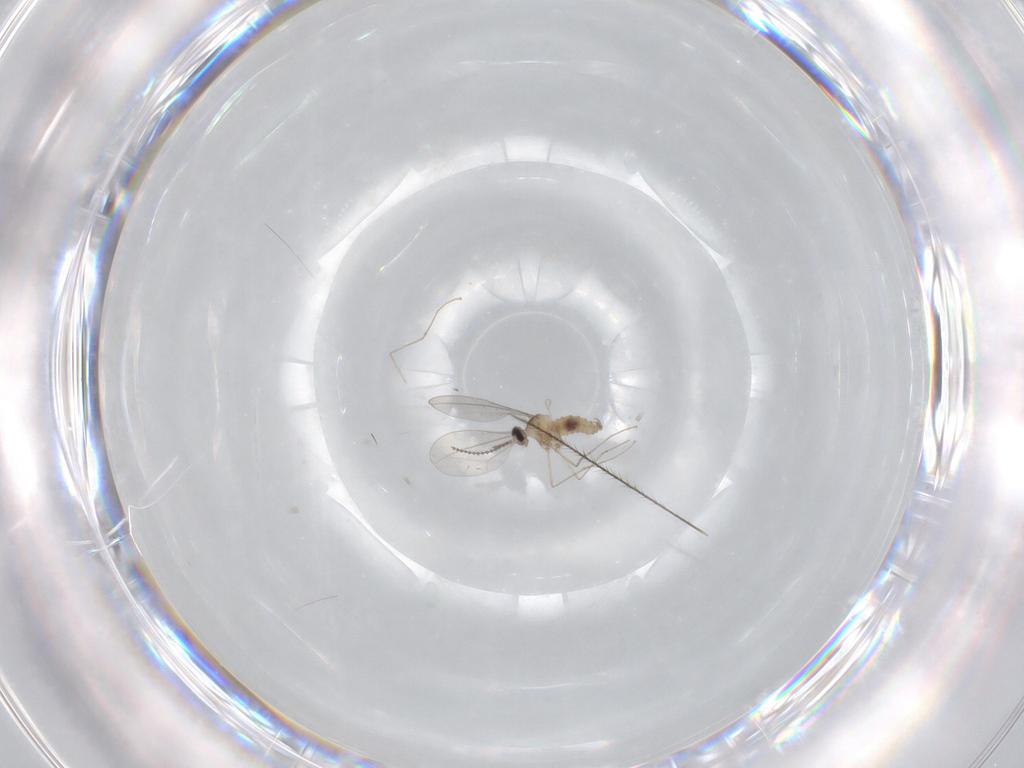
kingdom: Animalia
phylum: Arthropoda
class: Insecta
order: Diptera
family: Cecidomyiidae
